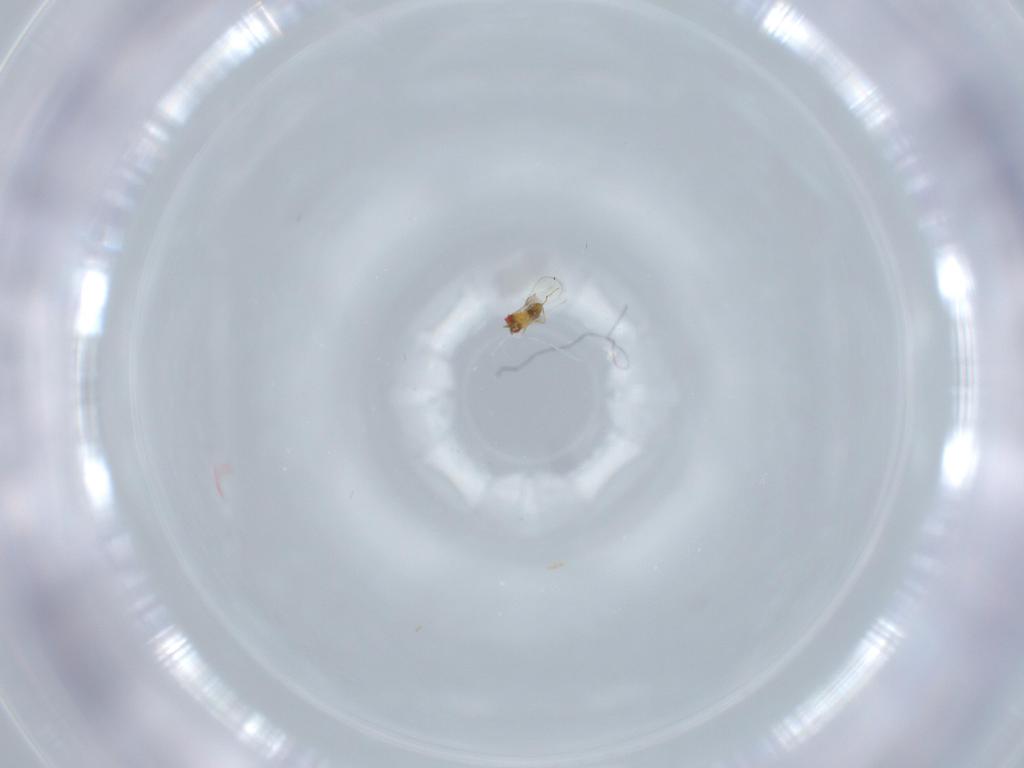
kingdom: Animalia
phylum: Arthropoda
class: Insecta
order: Hymenoptera
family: Trichogrammatidae
